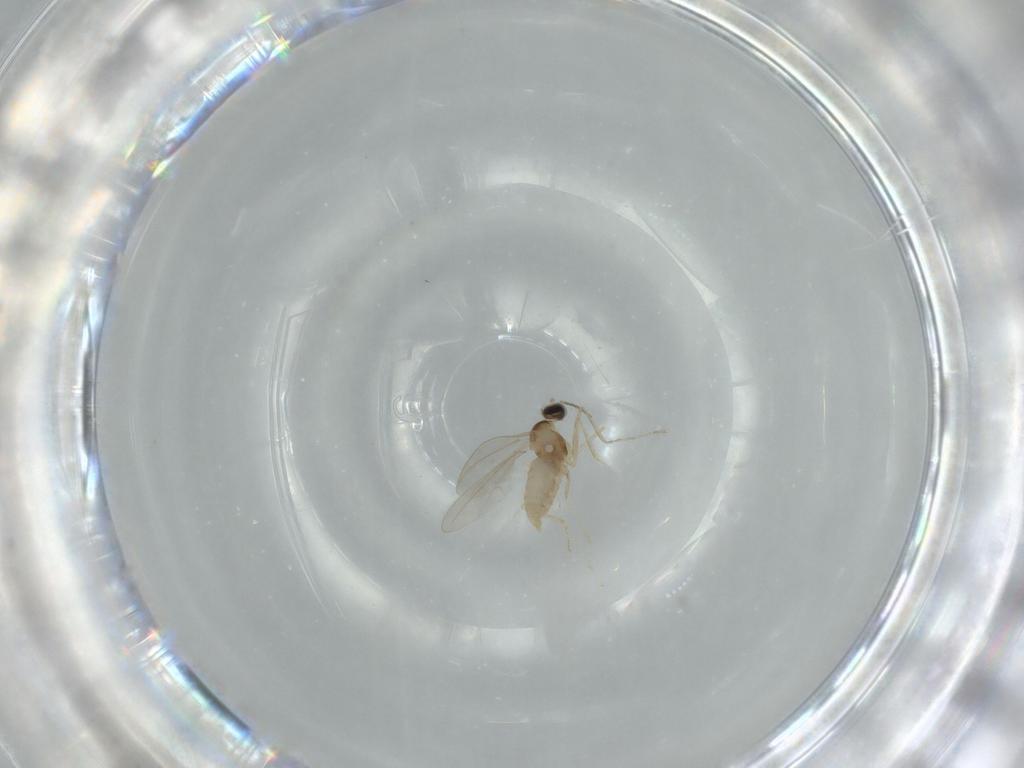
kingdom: Animalia
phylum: Arthropoda
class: Insecta
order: Diptera
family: Cecidomyiidae
